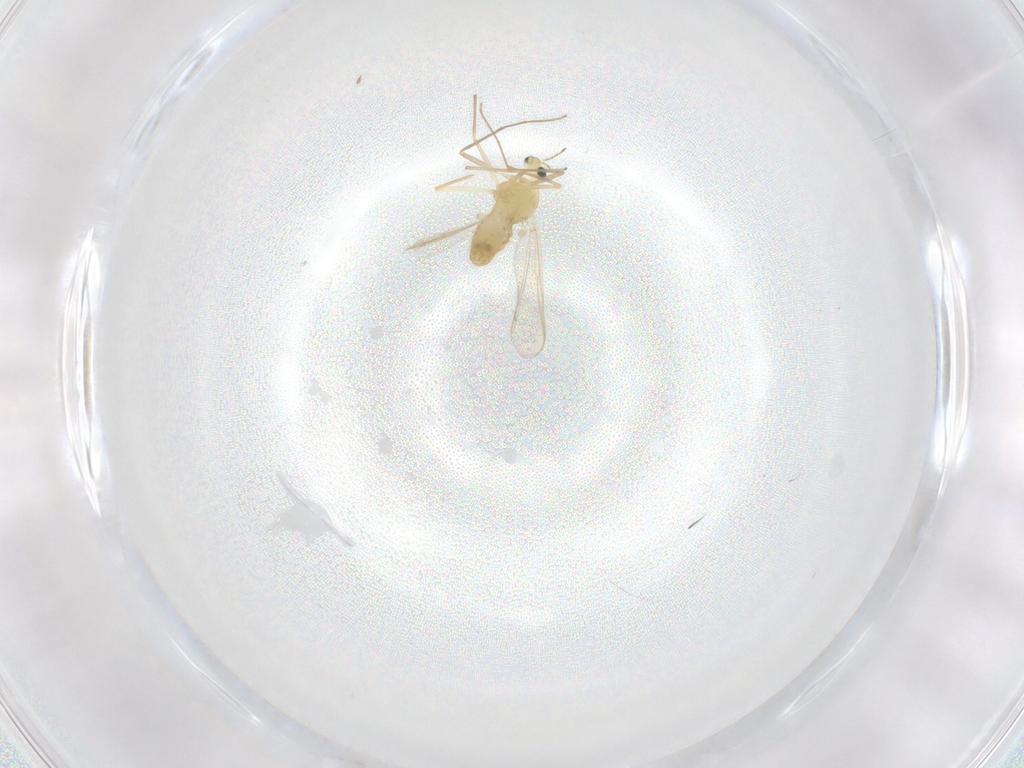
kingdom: Animalia
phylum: Arthropoda
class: Insecta
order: Diptera
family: Chironomidae
